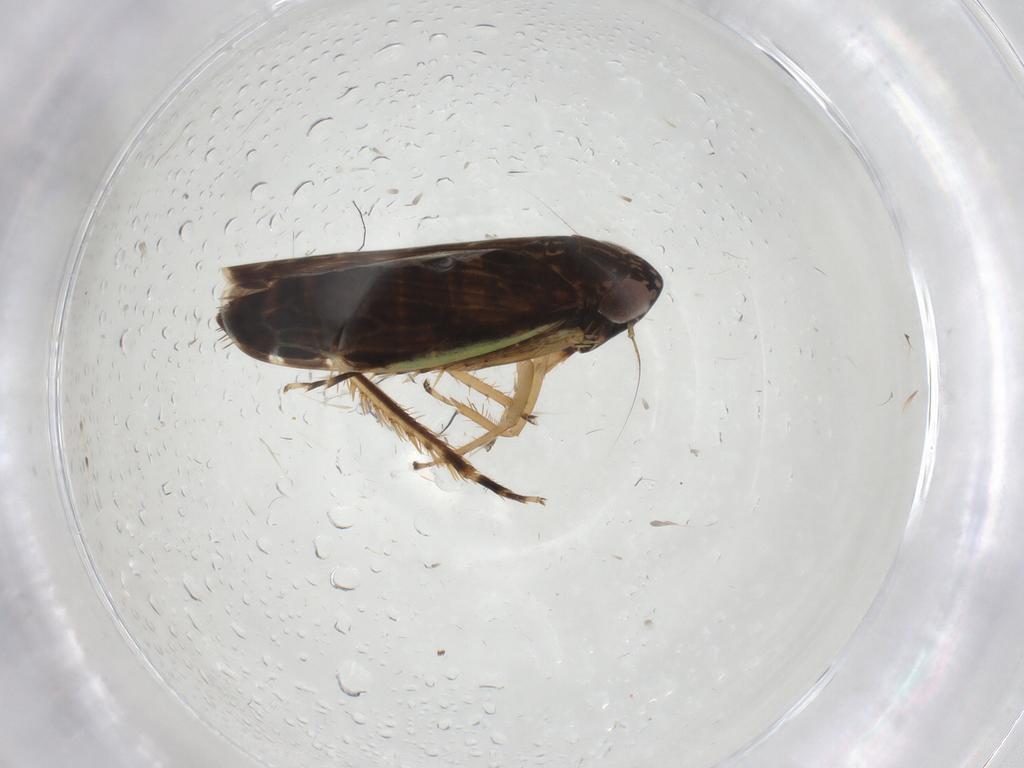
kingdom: Animalia
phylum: Arthropoda
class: Insecta
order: Hemiptera
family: Cicadellidae
